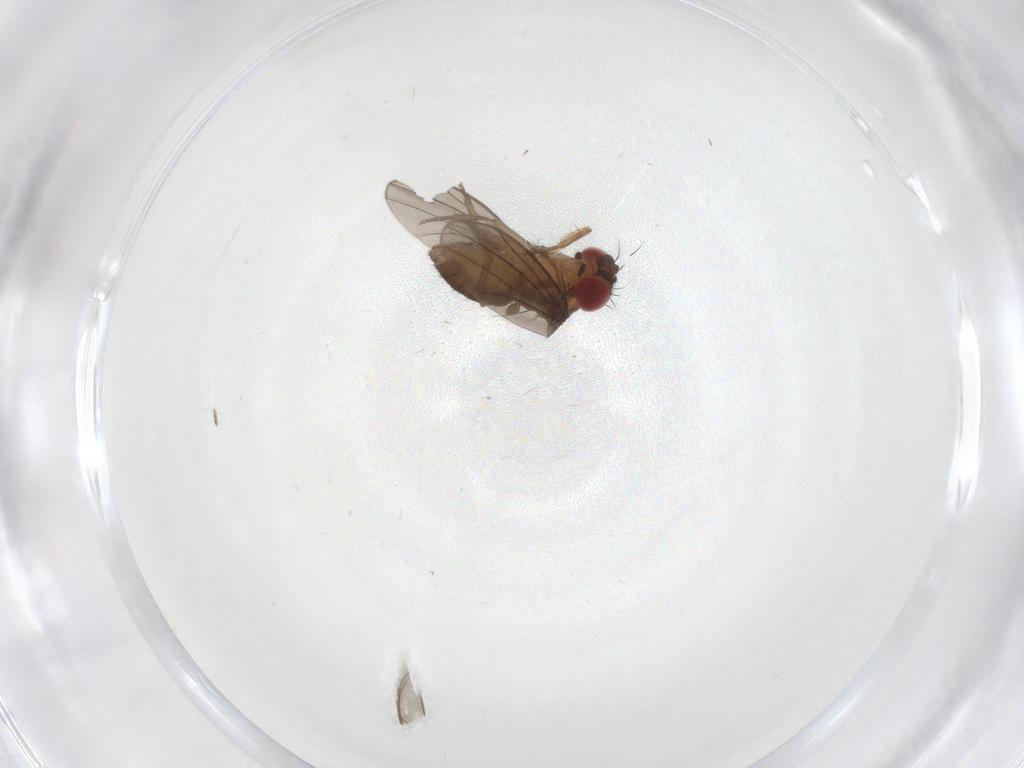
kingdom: Animalia
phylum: Arthropoda
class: Insecta
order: Diptera
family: Drosophilidae
